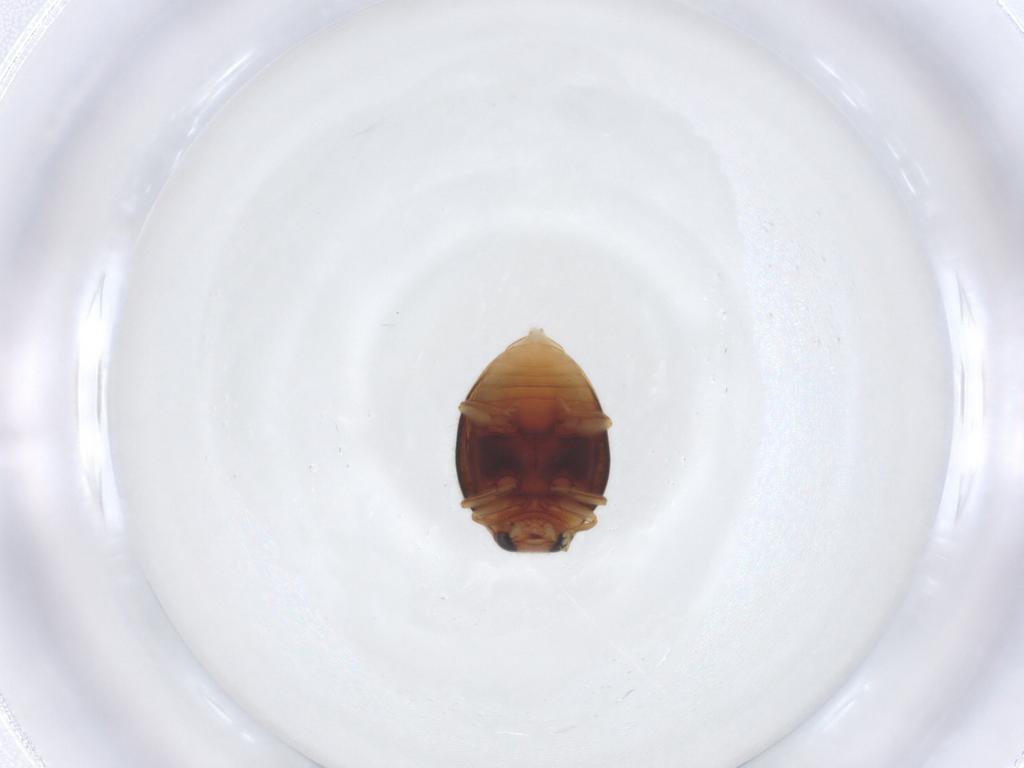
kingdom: Animalia
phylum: Arthropoda
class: Insecta
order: Coleoptera
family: Coccinellidae
